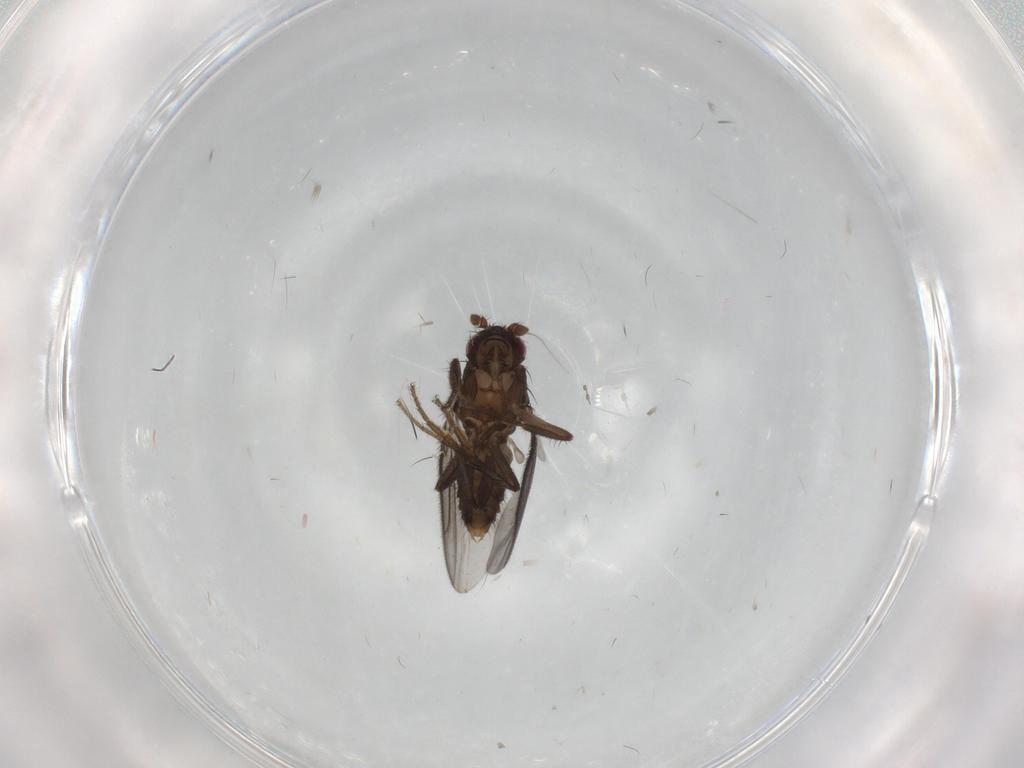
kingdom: Animalia
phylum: Arthropoda
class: Insecta
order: Diptera
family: Sphaeroceridae
